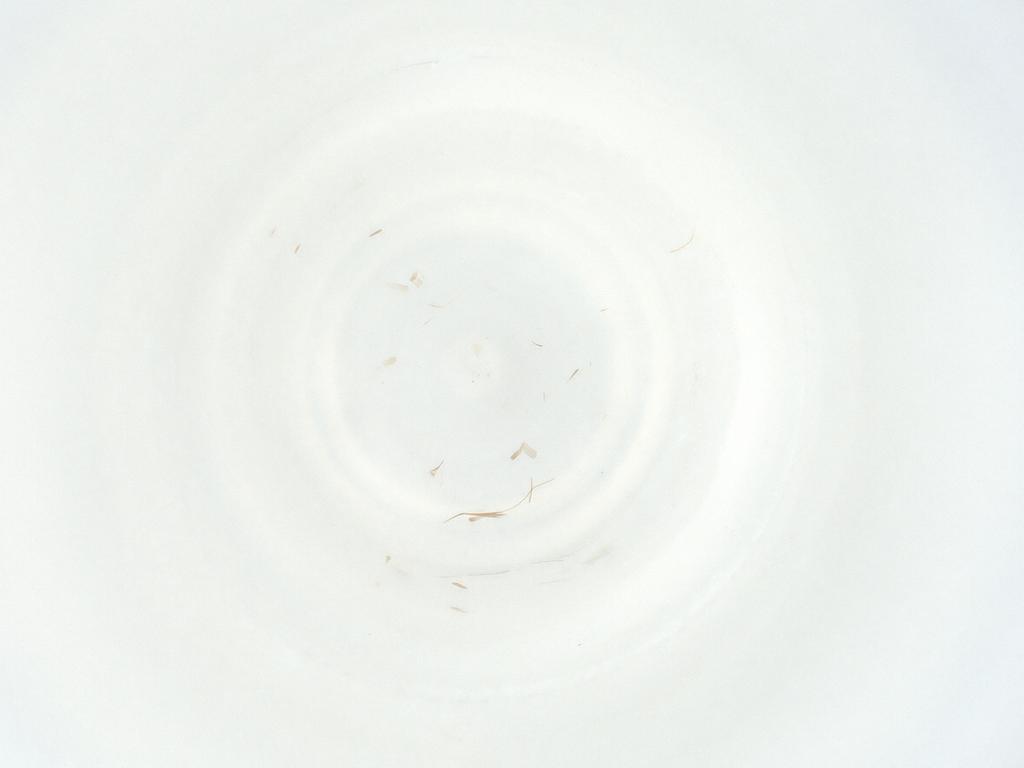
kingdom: Animalia
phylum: Arthropoda
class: Arachnida
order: Mesostigmata
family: Phytoseiidae
